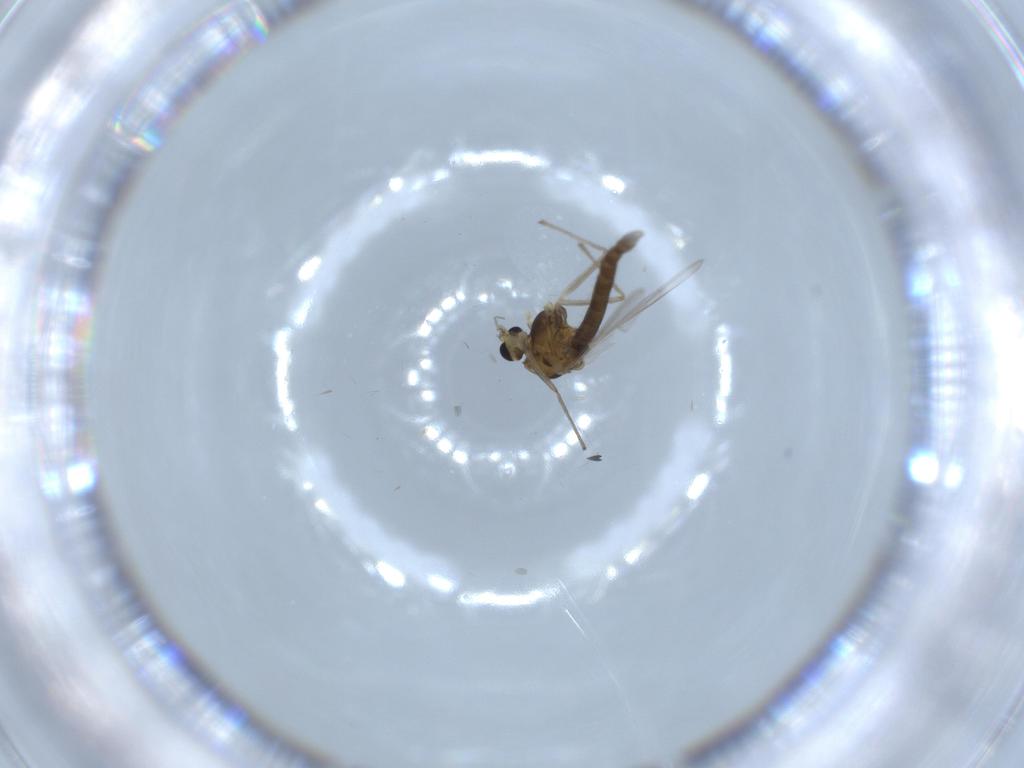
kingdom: Animalia
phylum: Arthropoda
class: Insecta
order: Diptera
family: Chironomidae
